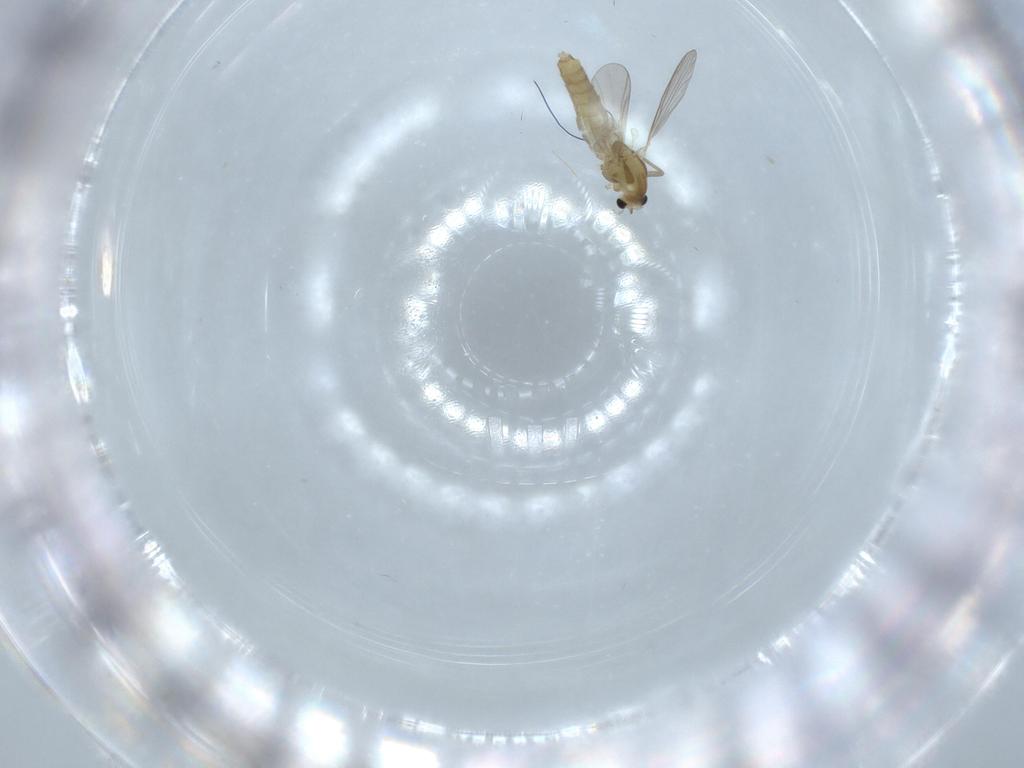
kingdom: Animalia
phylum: Arthropoda
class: Insecta
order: Diptera
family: Chironomidae
